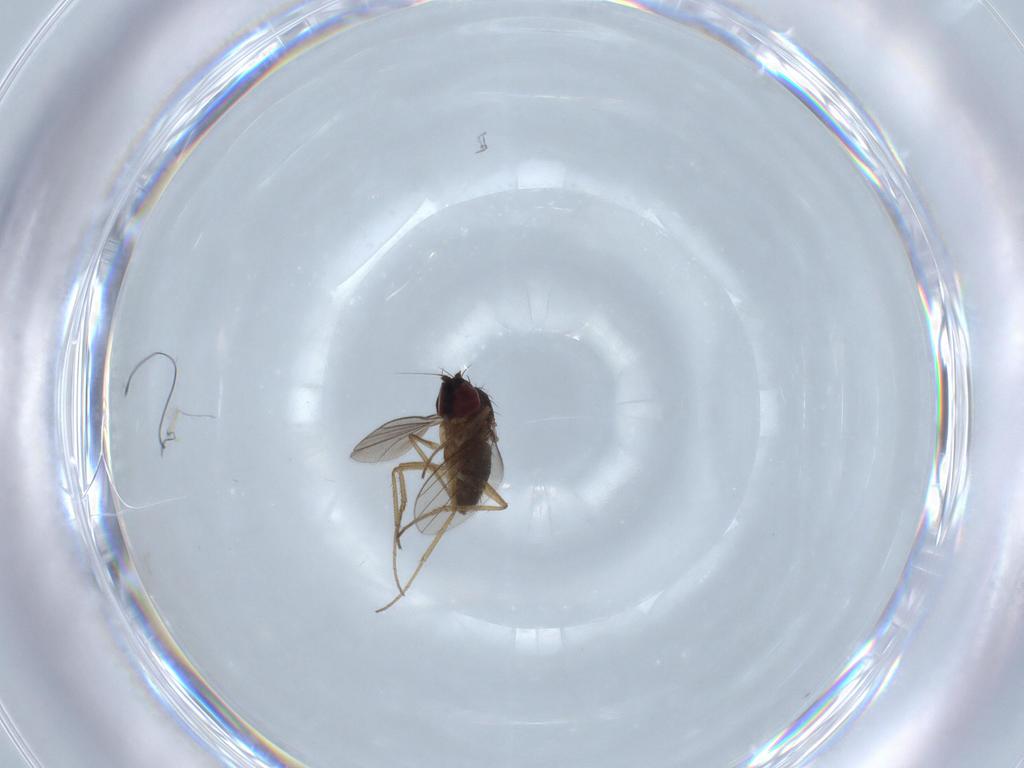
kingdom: Animalia
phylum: Arthropoda
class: Insecta
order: Diptera
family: Dolichopodidae
